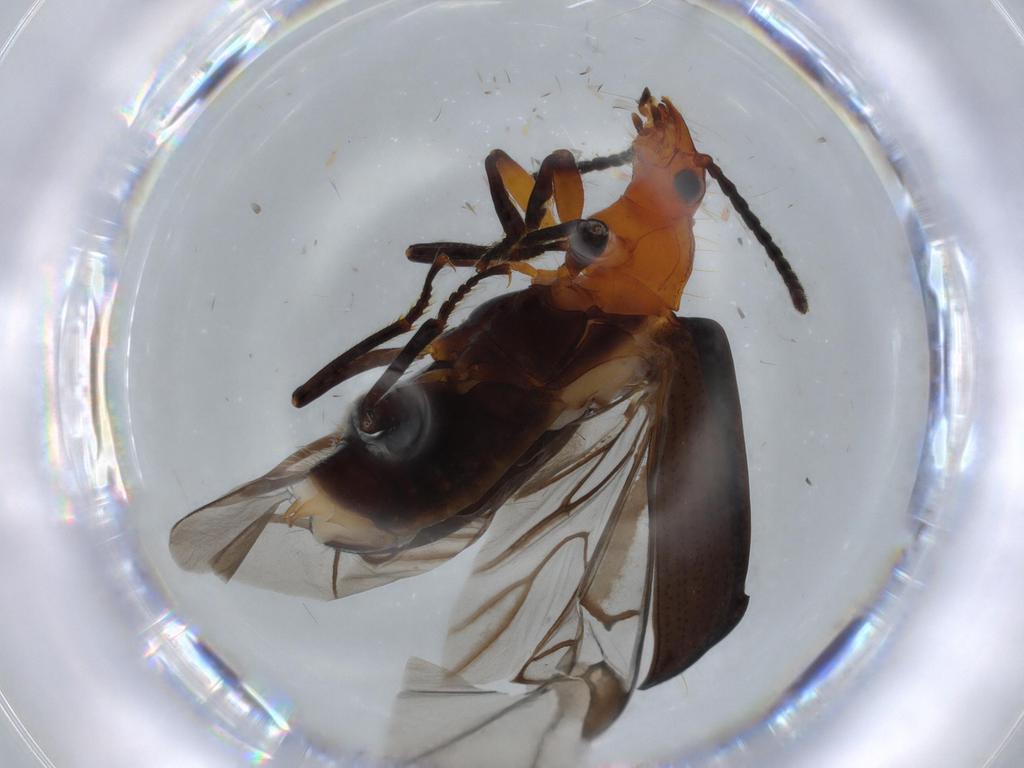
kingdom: Animalia
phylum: Arthropoda
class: Insecta
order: Coleoptera
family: Carabidae
